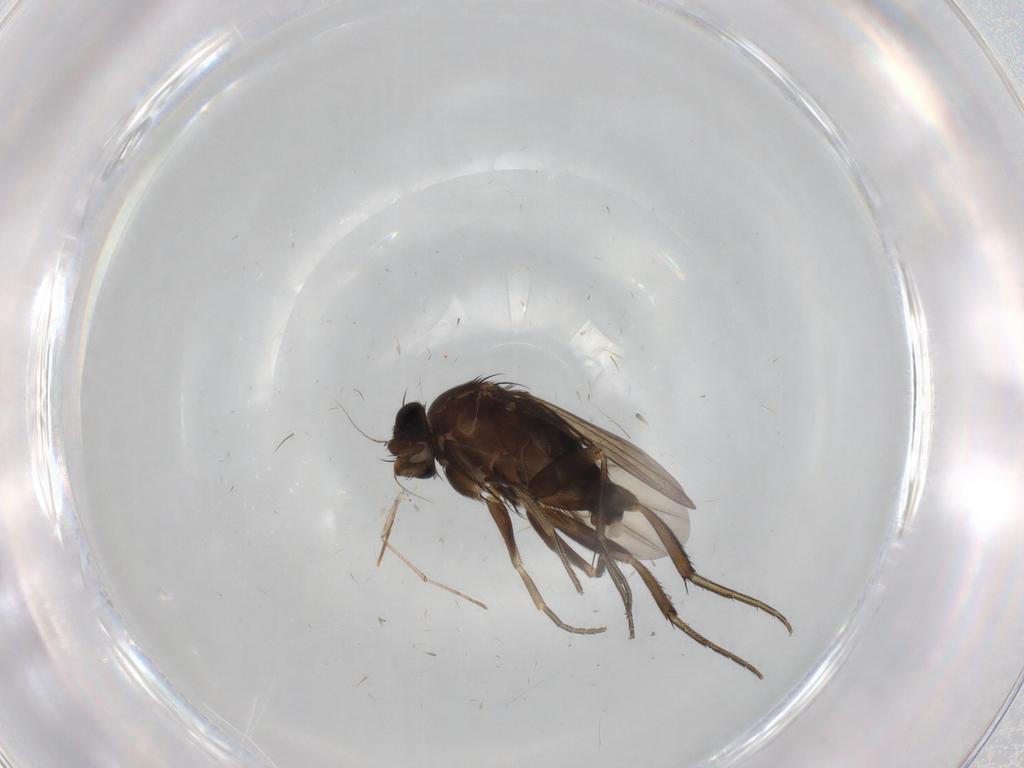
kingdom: Animalia
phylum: Arthropoda
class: Insecta
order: Diptera
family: Phoridae
